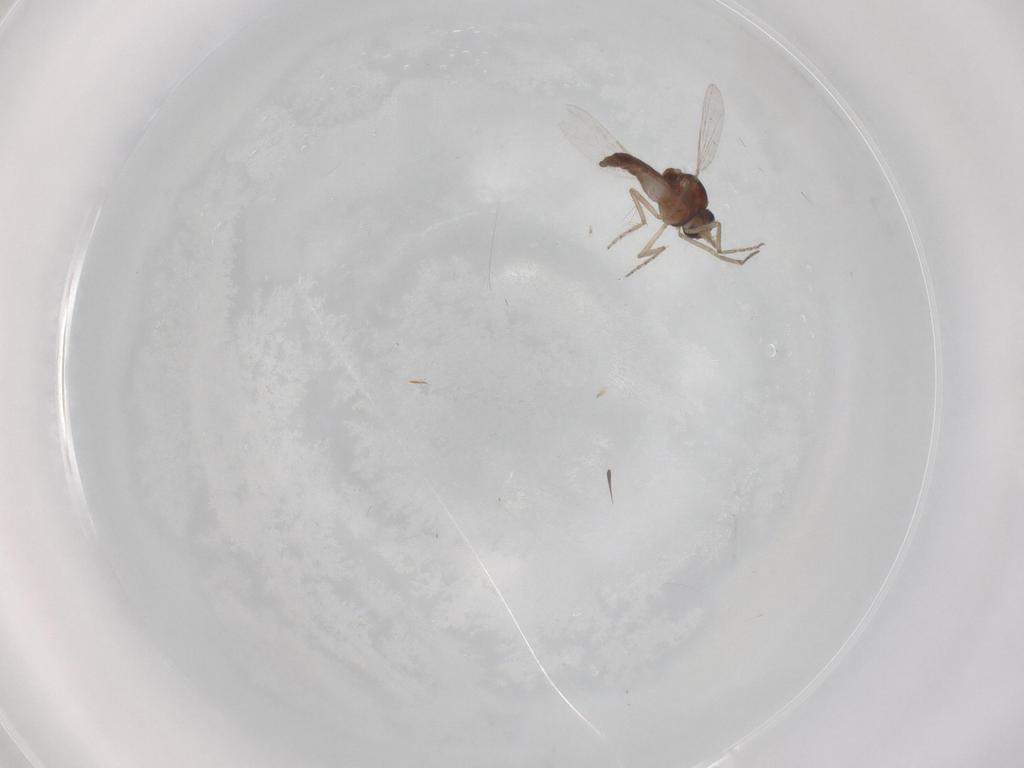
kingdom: Animalia
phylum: Arthropoda
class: Insecta
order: Diptera
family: Ceratopogonidae
